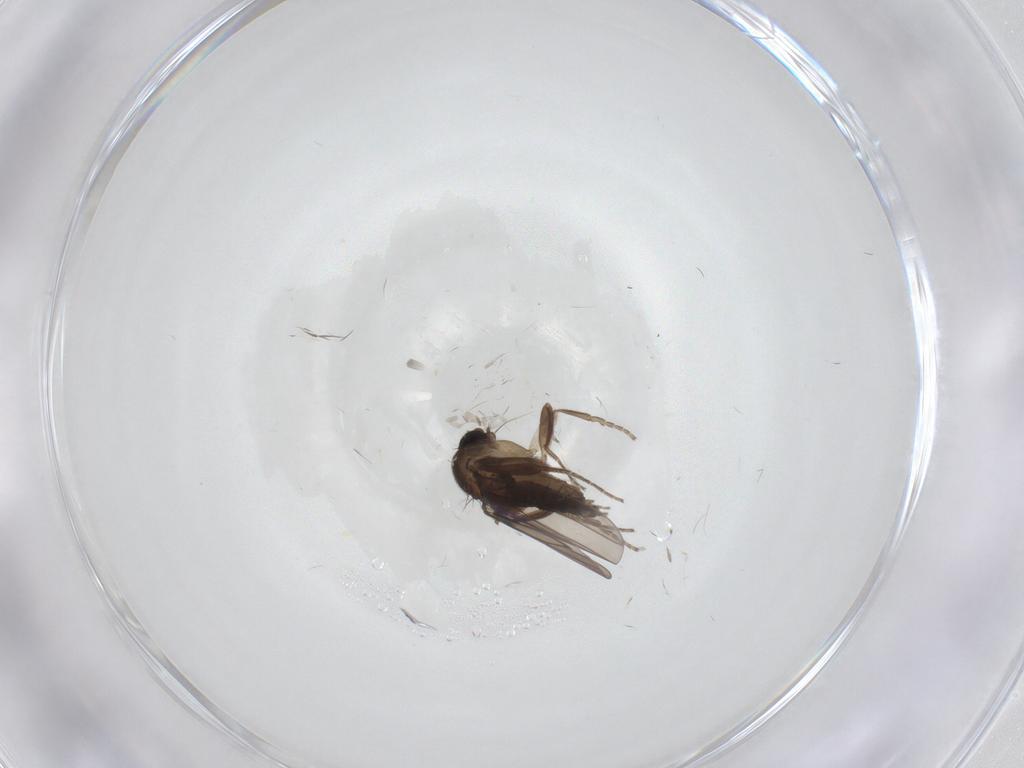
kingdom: Animalia
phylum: Arthropoda
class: Insecta
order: Diptera
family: Chironomidae
